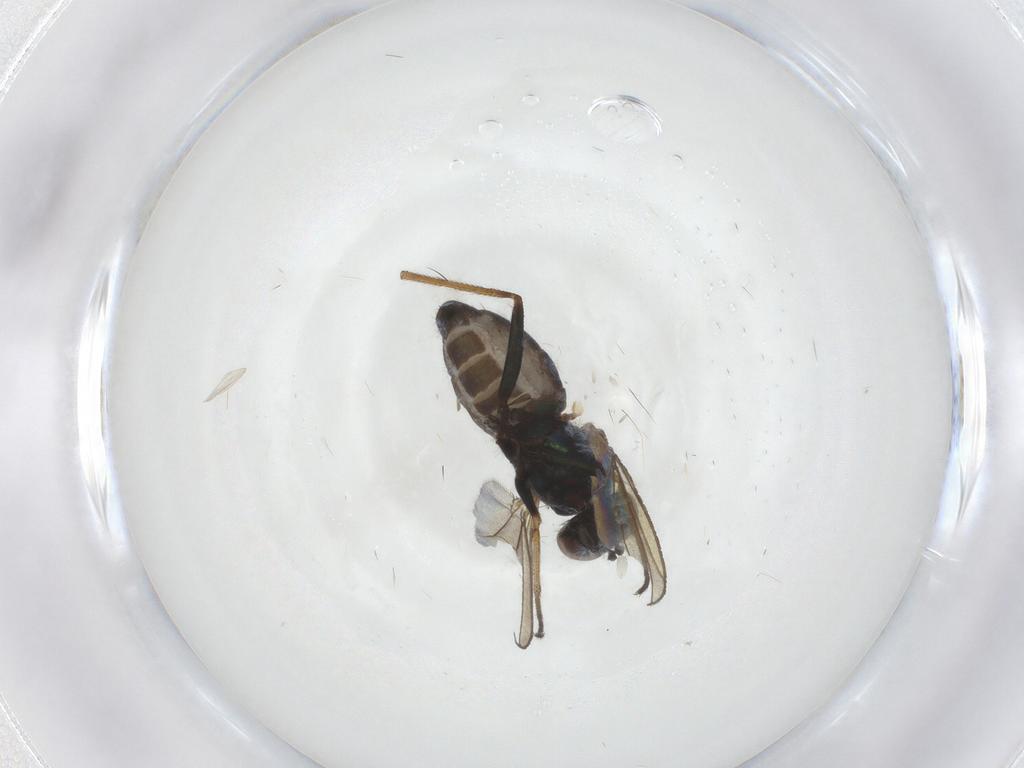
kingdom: Animalia
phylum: Arthropoda
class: Insecta
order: Diptera
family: Dolichopodidae
